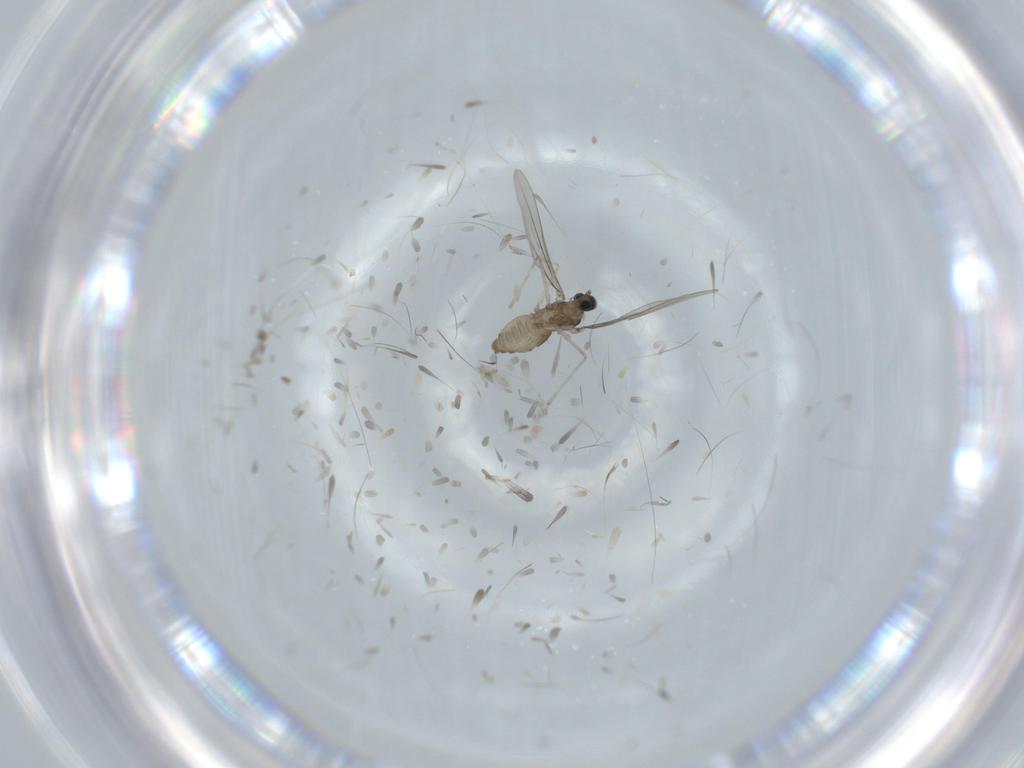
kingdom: Animalia
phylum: Arthropoda
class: Insecta
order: Diptera
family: Cecidomyiidae
